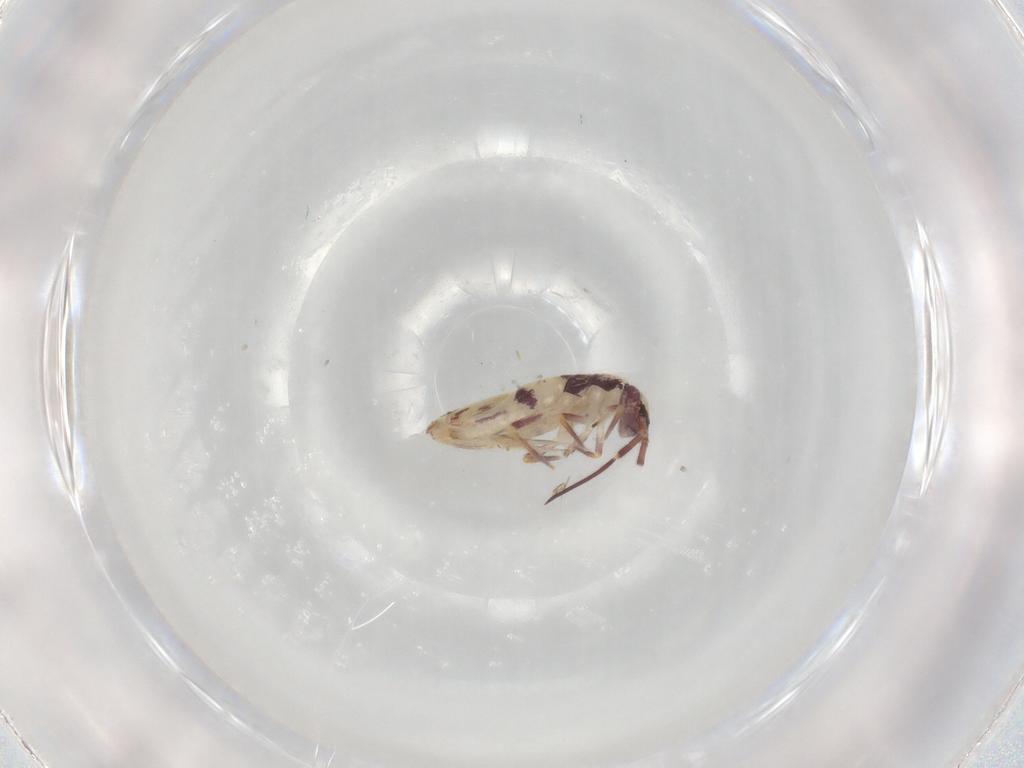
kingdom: Animalia
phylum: Arthropoda
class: Collembola
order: Entomobryomorpha
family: Entomobryidae
